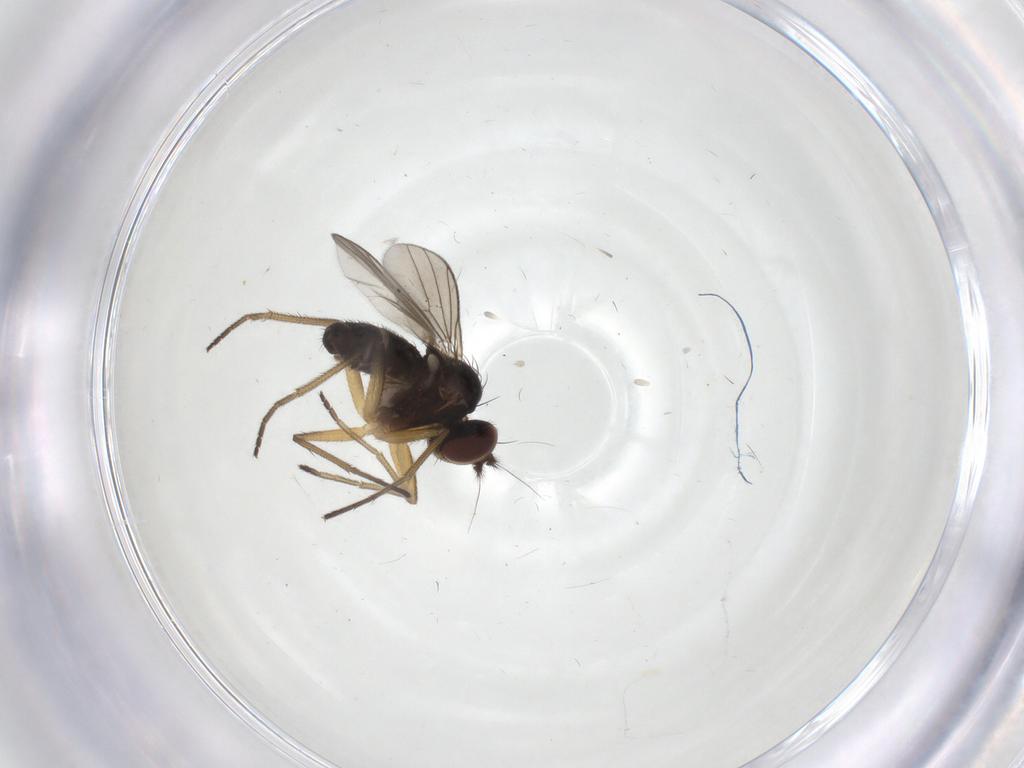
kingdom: Animalia
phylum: Arthropoda
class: Insecta
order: Diptera
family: Dolichopodidae
